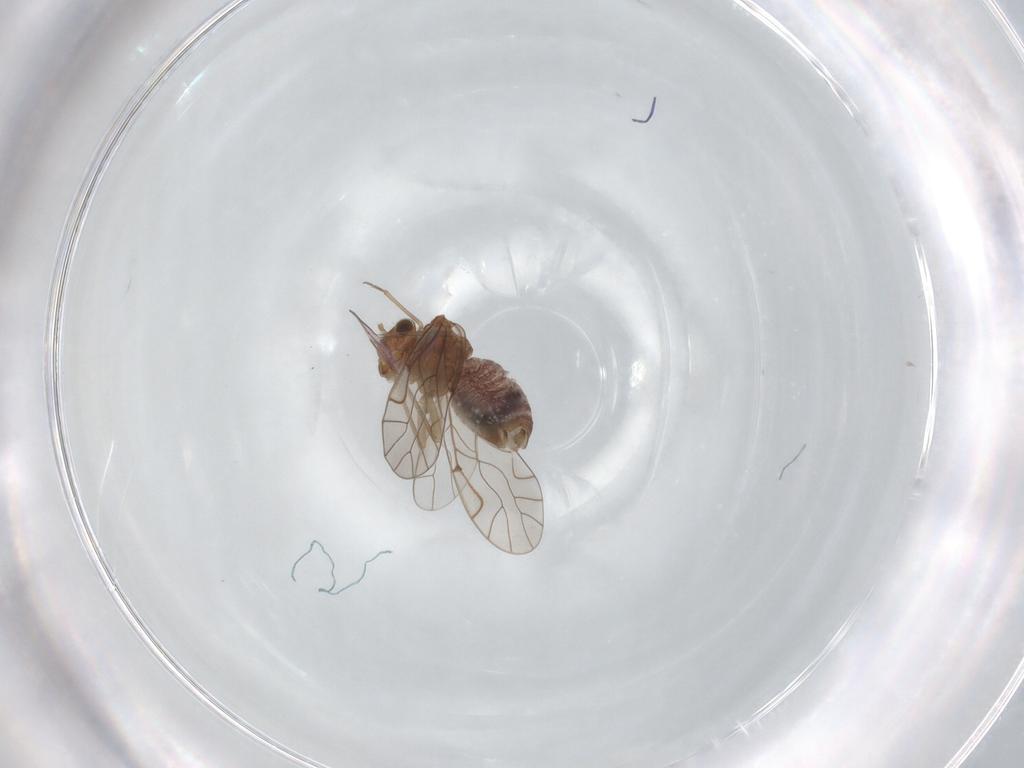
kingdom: Animalia
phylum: Arthropoda
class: Insecta
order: Psocodea
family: Lachesillidae
